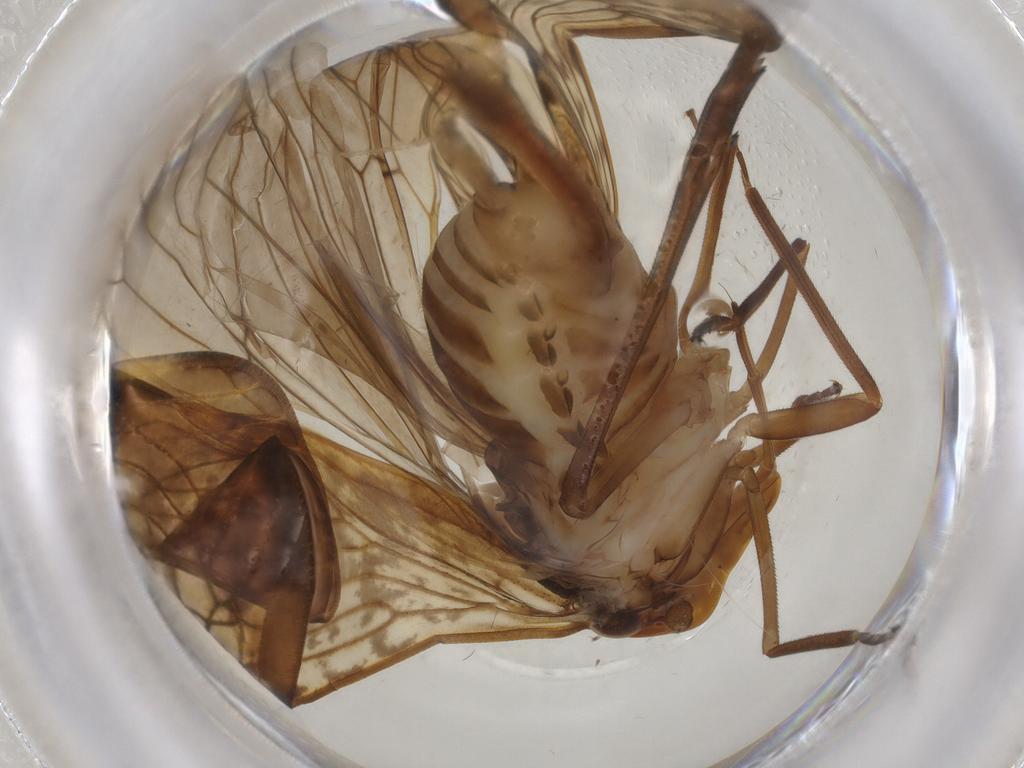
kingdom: Animalia
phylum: Arthropoda
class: Insecta
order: Hemiptera
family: Cixiidae
